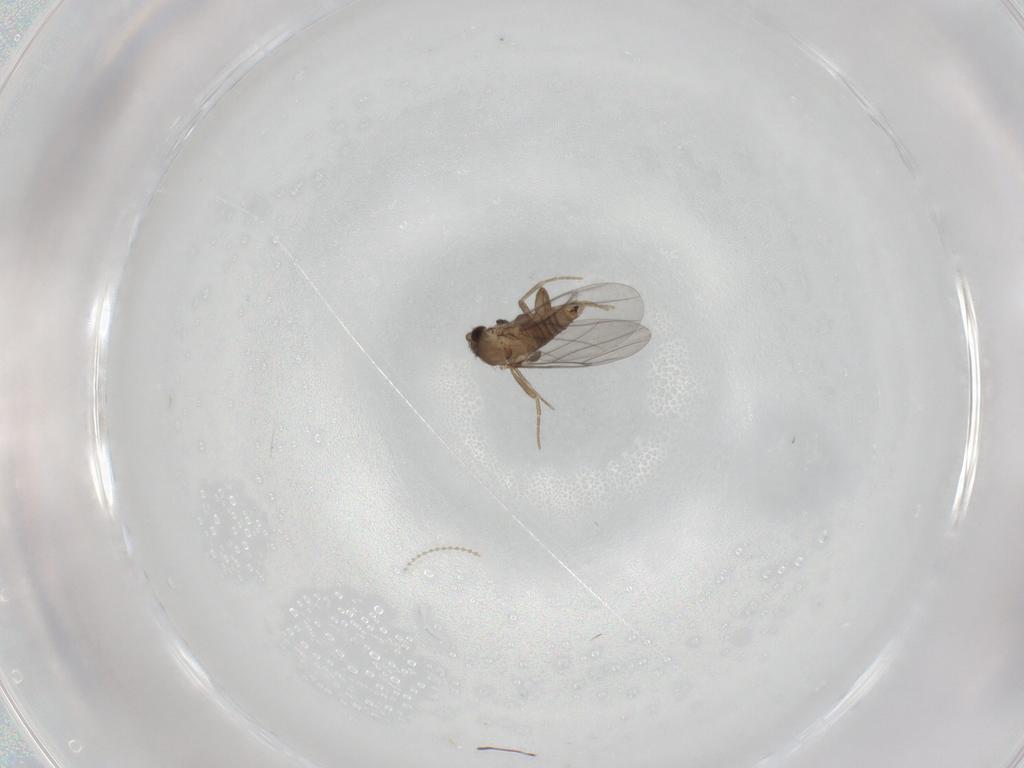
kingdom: Animalia
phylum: Arthropoda
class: Insecta
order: Diptera
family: Cecidomyiidae
